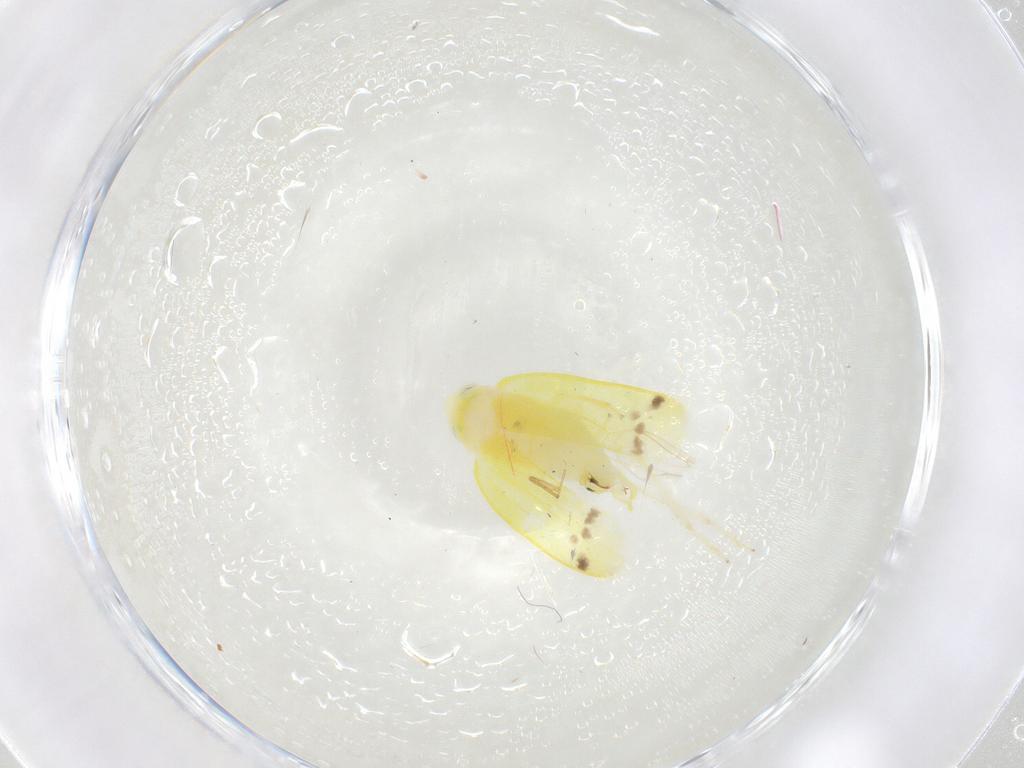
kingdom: Animalia
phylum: Arthropoda
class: Insecta
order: Hemiptera
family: Cicadellidae
